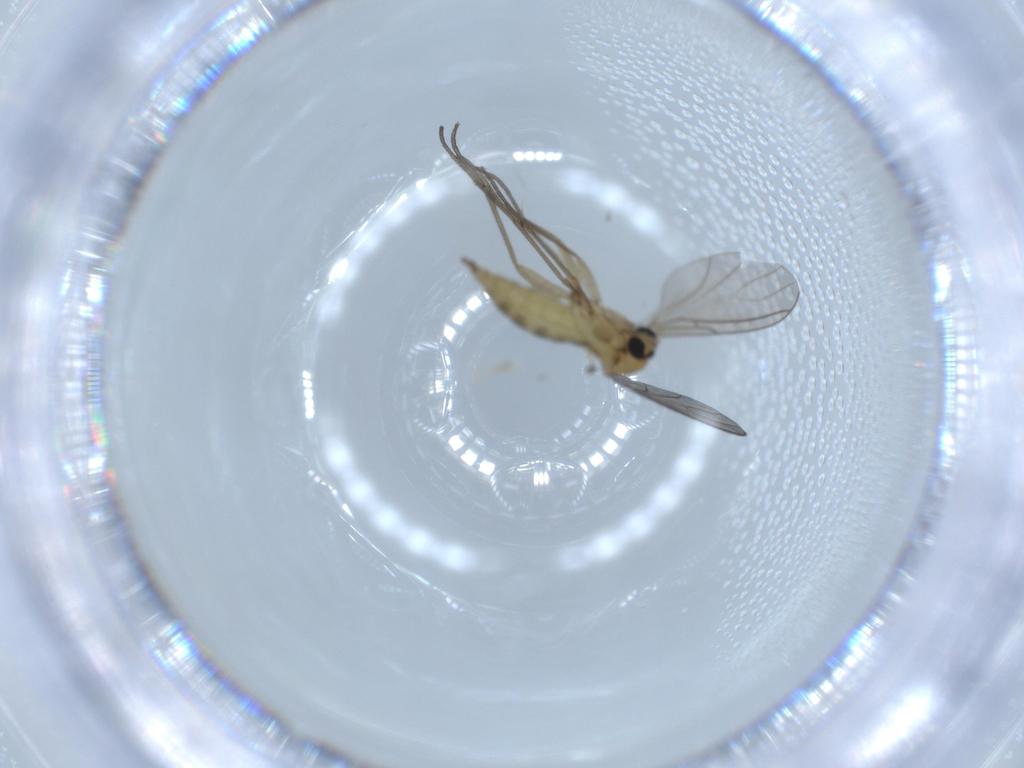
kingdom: Animalia
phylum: Arthropoda
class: Insecta
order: Diptera
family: Sciaridae
